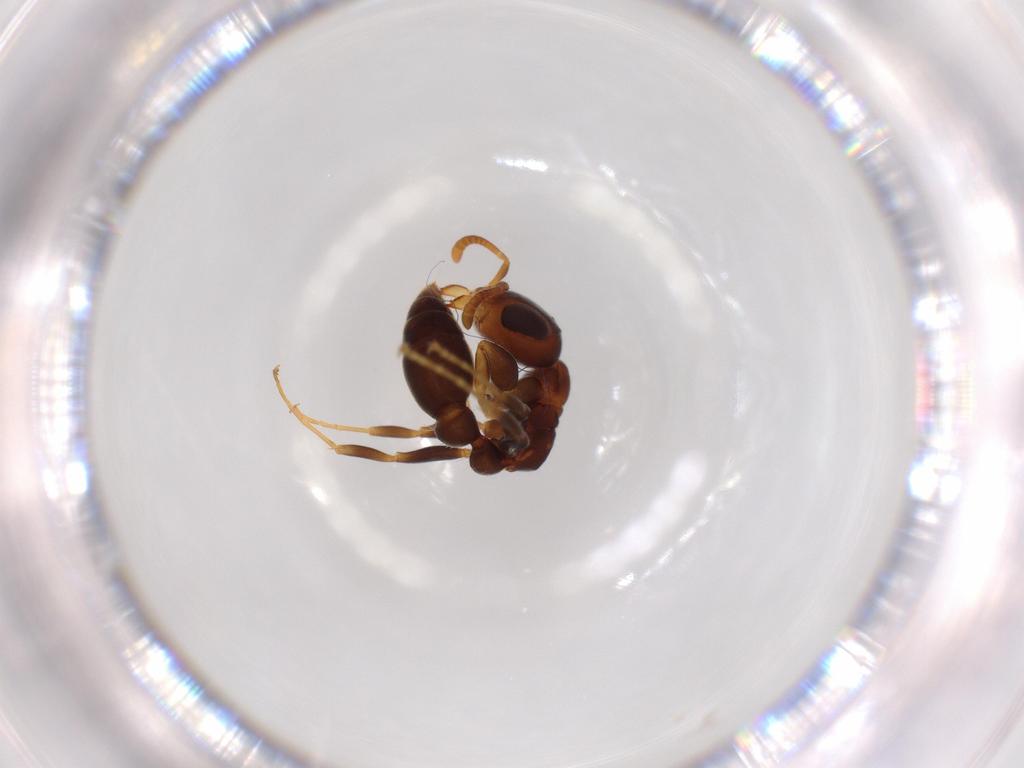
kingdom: Animalia
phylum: Arthropoda
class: Insecta
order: Hymenoptera
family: Formicidae
